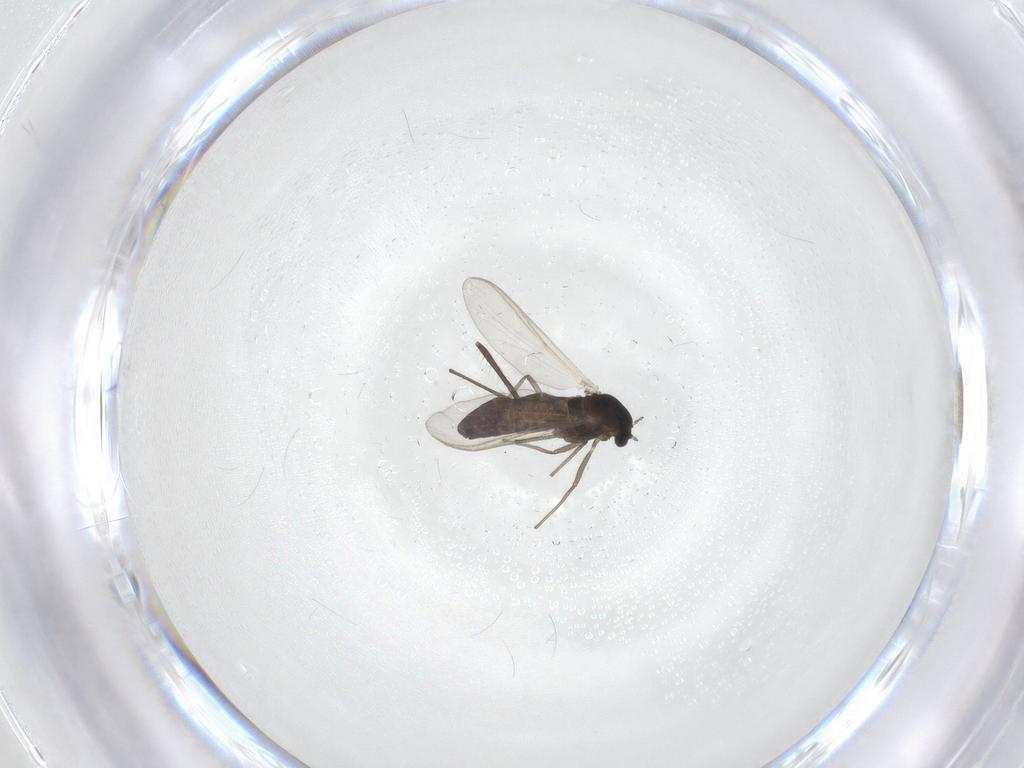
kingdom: Animalia
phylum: Arthropoda
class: Insecta
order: Diptera
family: Chironomidae
